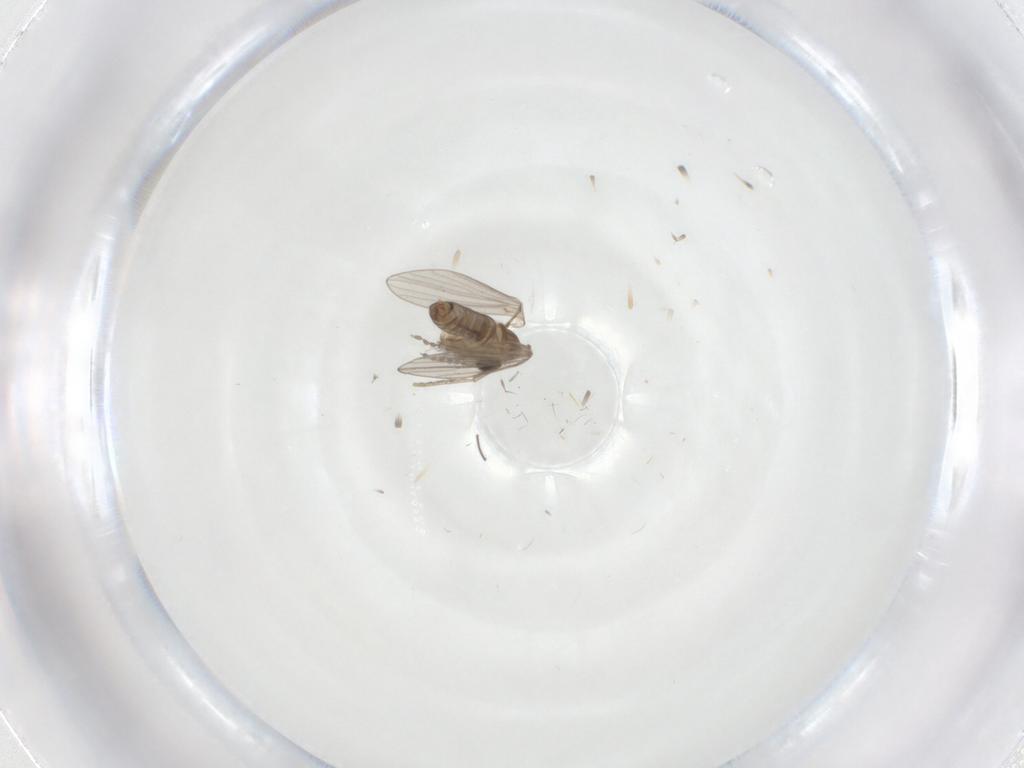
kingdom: Animalia
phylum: Arthropoda
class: Insecta
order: Diptera
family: Psychodidae
